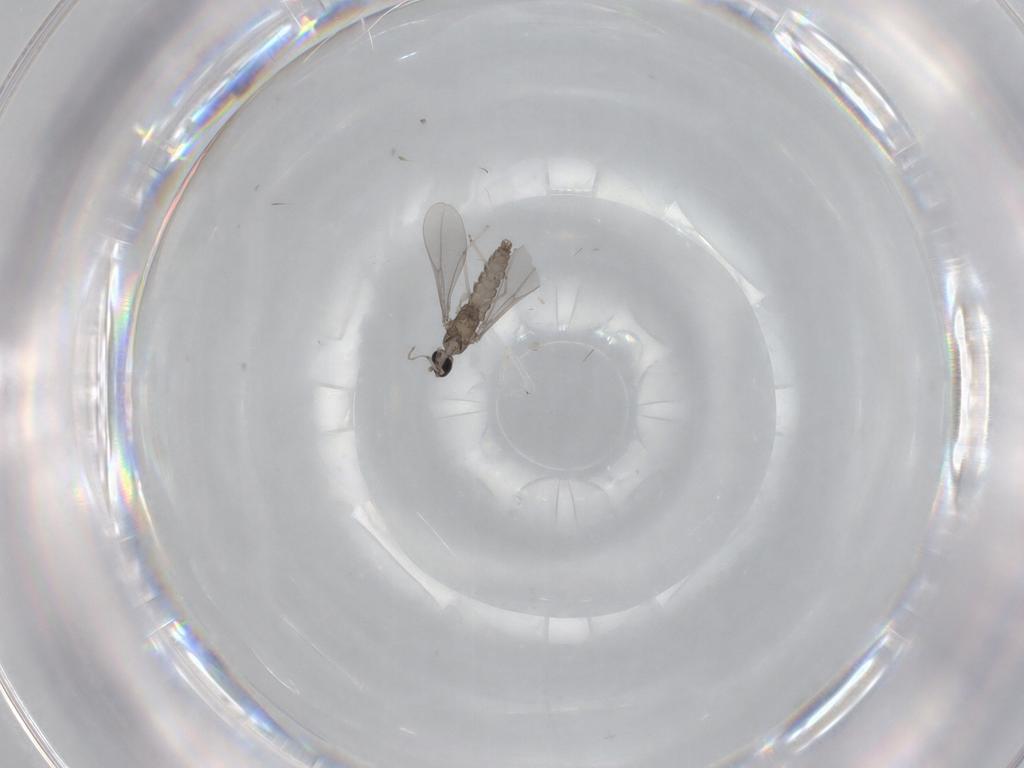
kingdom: Animalia
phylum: Arthropoda
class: Insecta
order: Diptera
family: Cecidomyiidae
